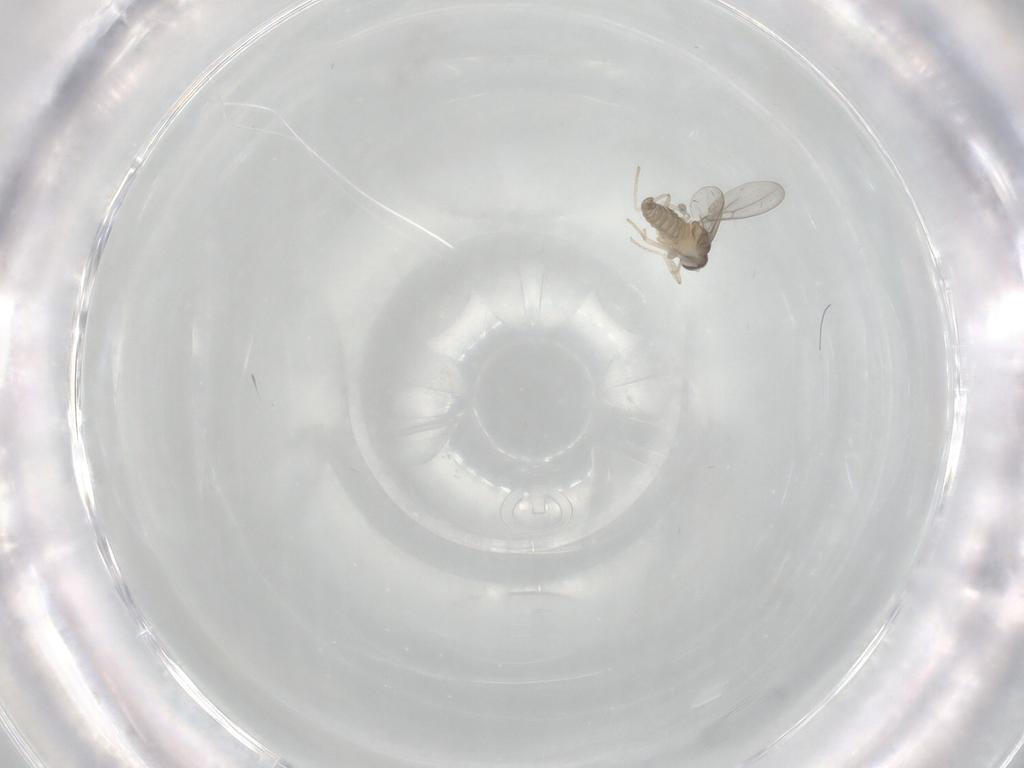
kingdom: Animalia
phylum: Arthropoda
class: Insecta
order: Diptera
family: Cecidomyiidae
